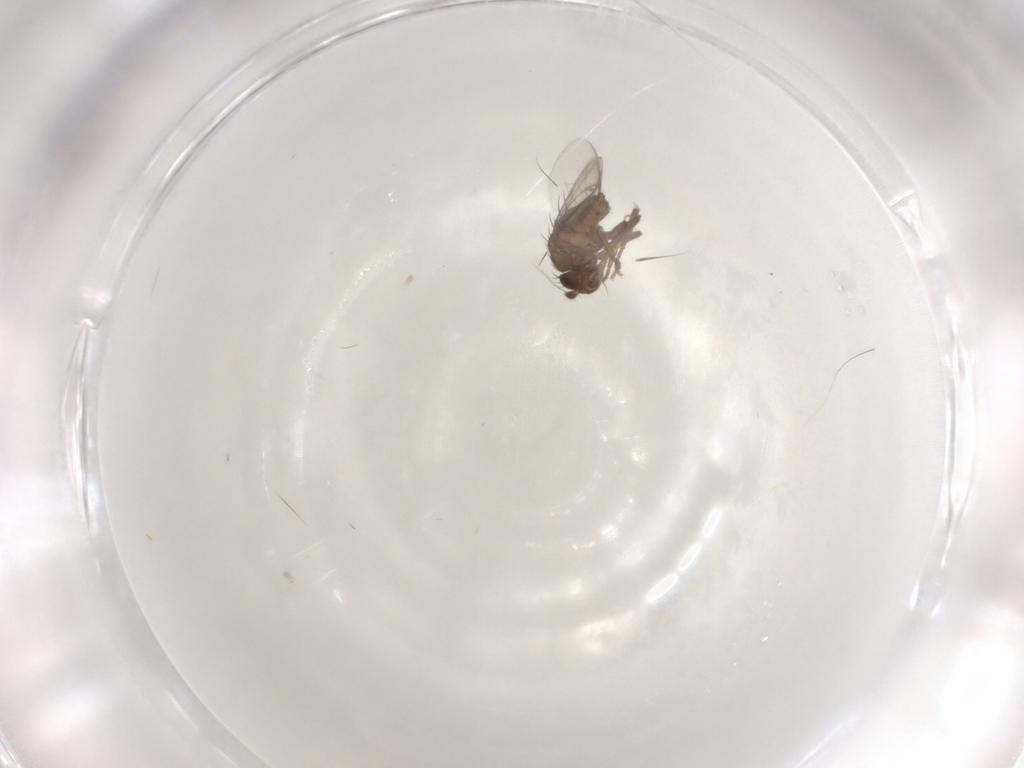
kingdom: Animalia
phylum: Arthropoda
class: Insecta
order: Diptera
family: Sphaeroceridae
